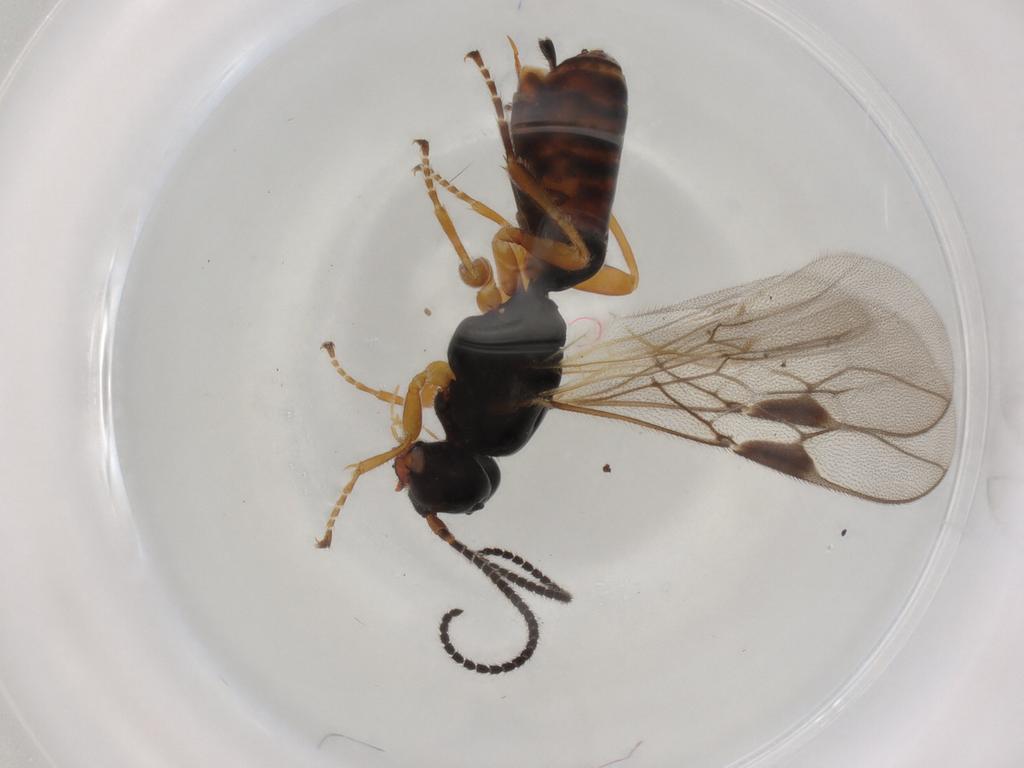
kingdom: Animalia
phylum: Arthropoda
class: Insecta
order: Hymenoptera
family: Braconidae
